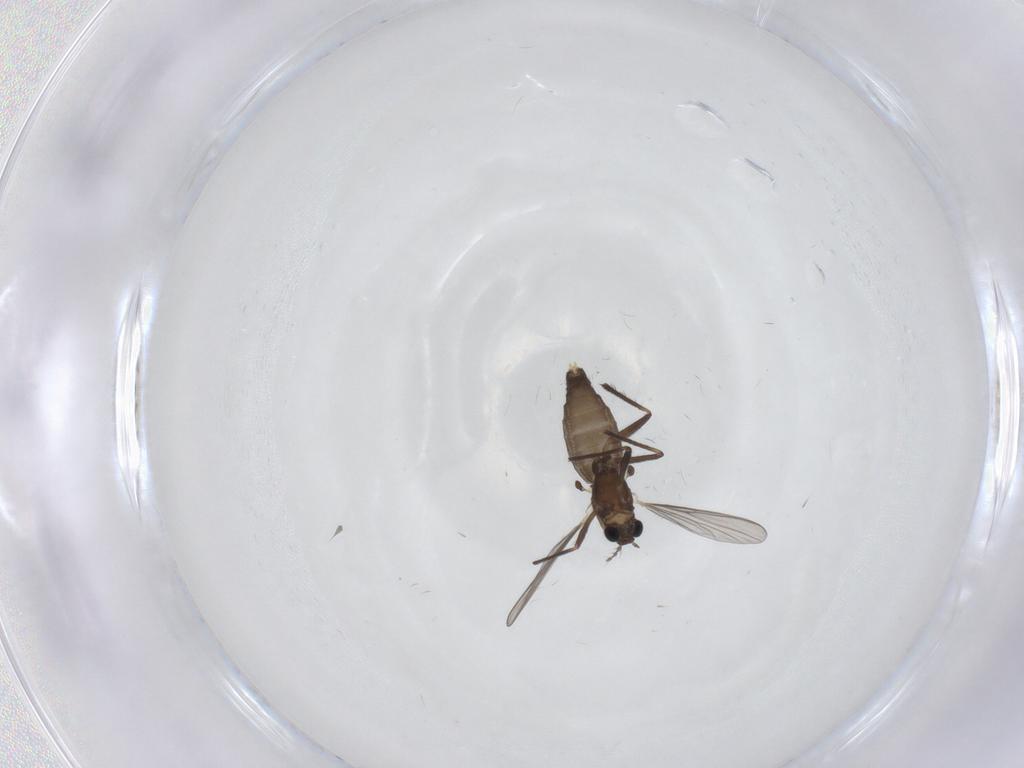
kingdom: Animalia
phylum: Arthropoda
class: Insecta
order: Diptera
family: Chironomidae
